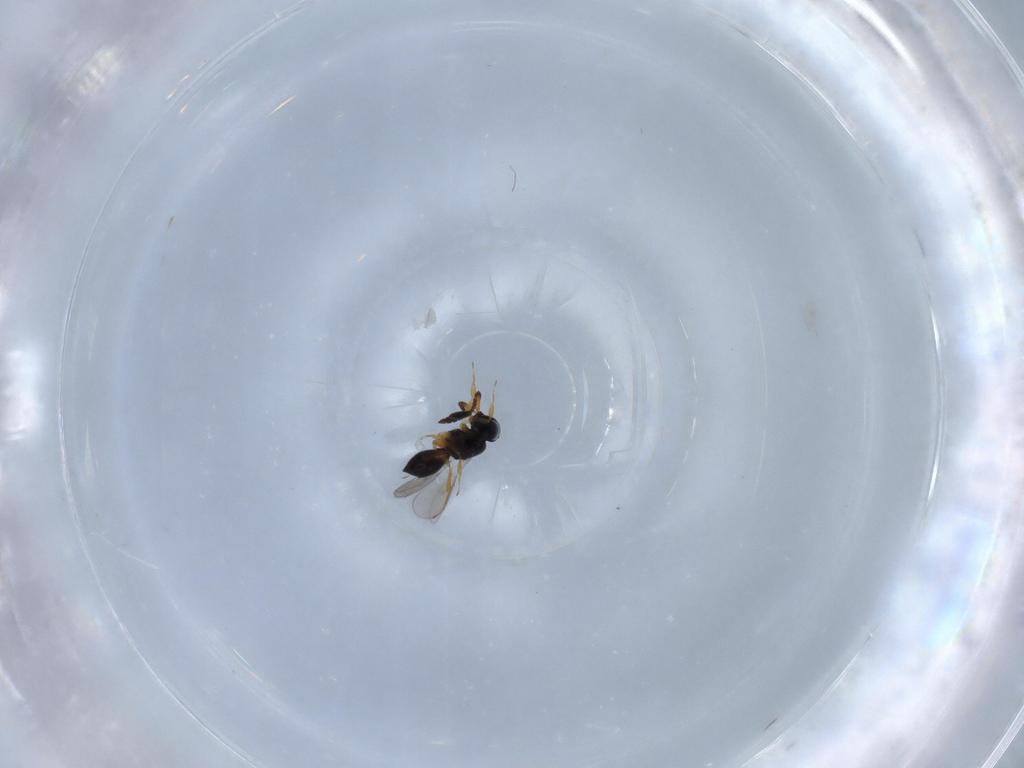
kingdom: Animalia
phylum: Arthropoda
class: Insecta
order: Hymenoptera
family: Scelionidae
